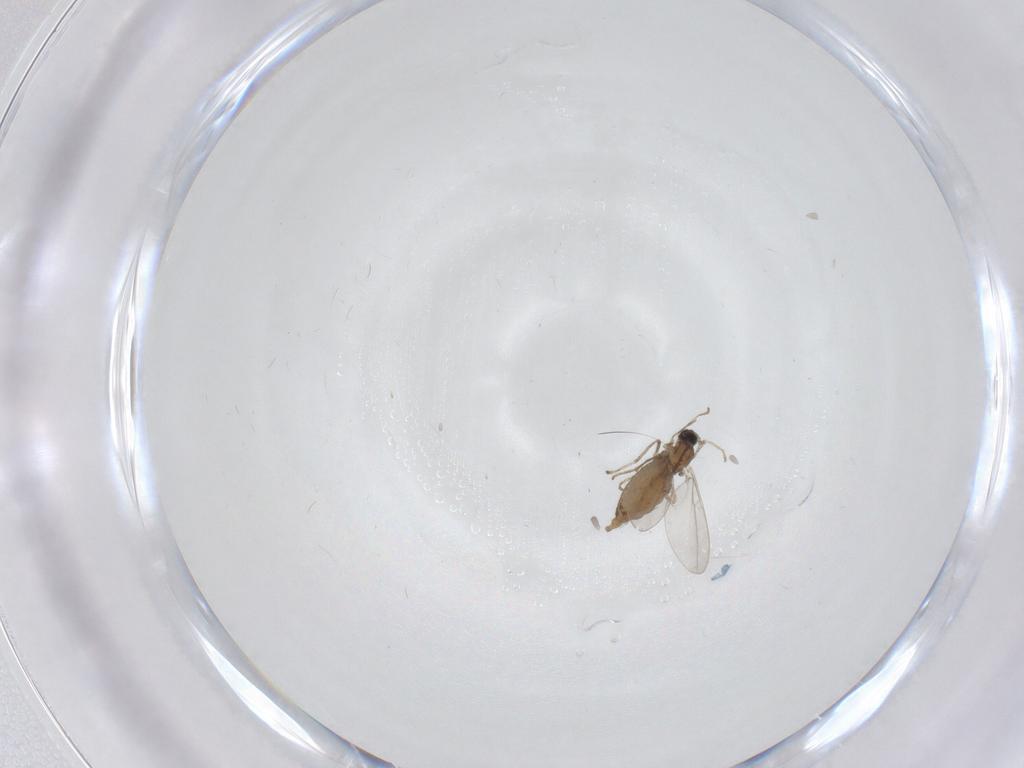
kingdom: Animalia
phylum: Arthropoda
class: Insecta
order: Diptera
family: Cecidomyiidae
